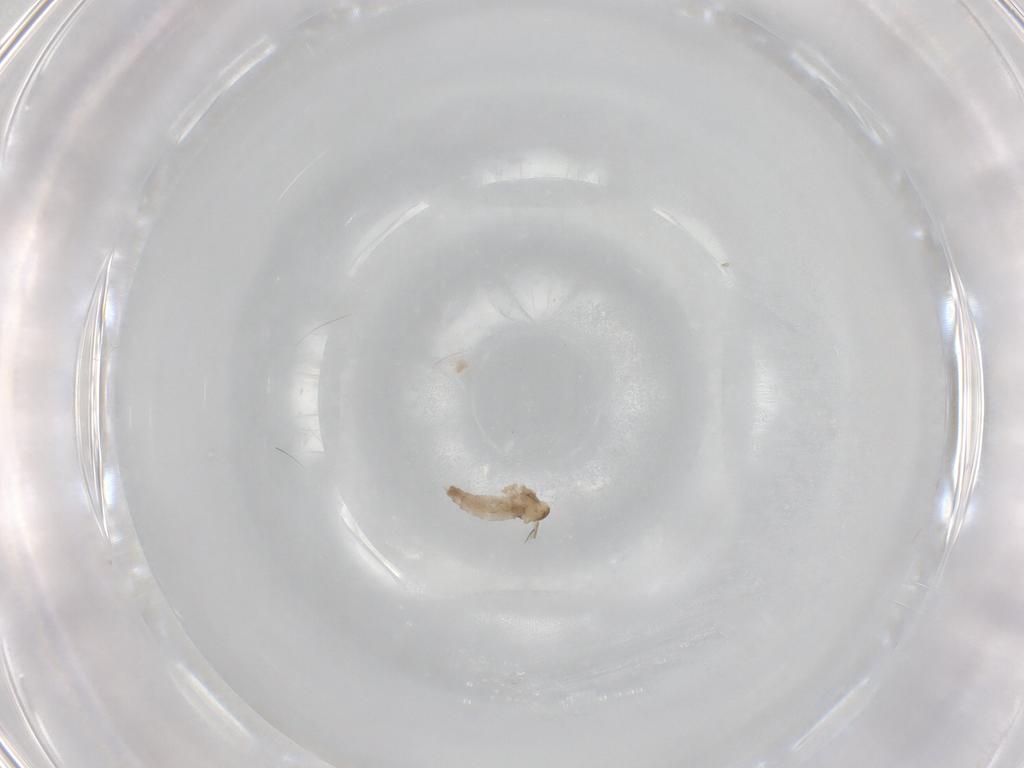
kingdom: Animalia
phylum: Arthropoda
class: Insecta
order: Diptera
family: Cecidomyiidae
